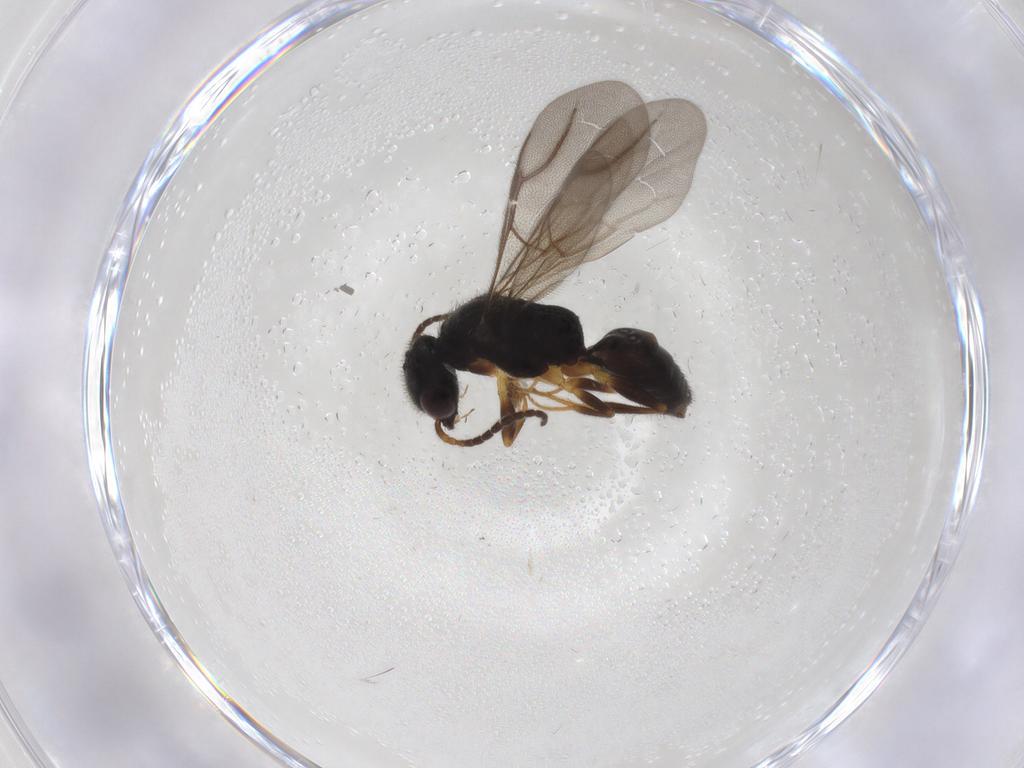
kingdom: Animalia
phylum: Arthropoda
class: Insecta
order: Hymenoptera
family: Bethylidae
